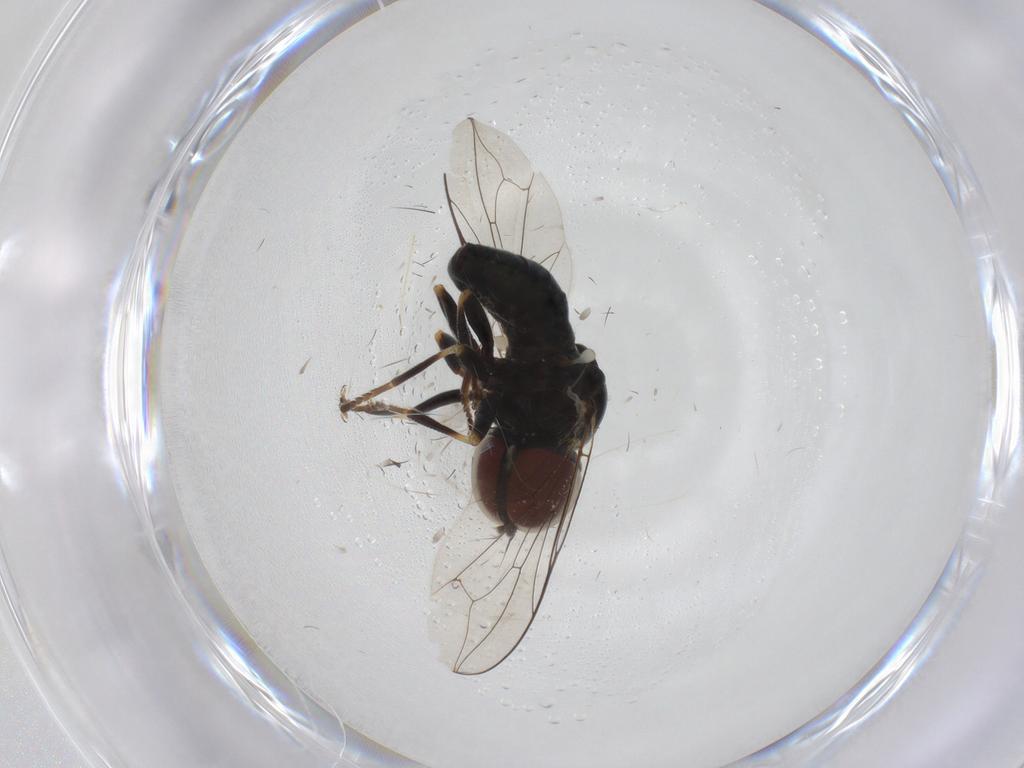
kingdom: Animalia
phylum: Arthropoda
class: Insecta
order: Diptera
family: Pipunculidae
